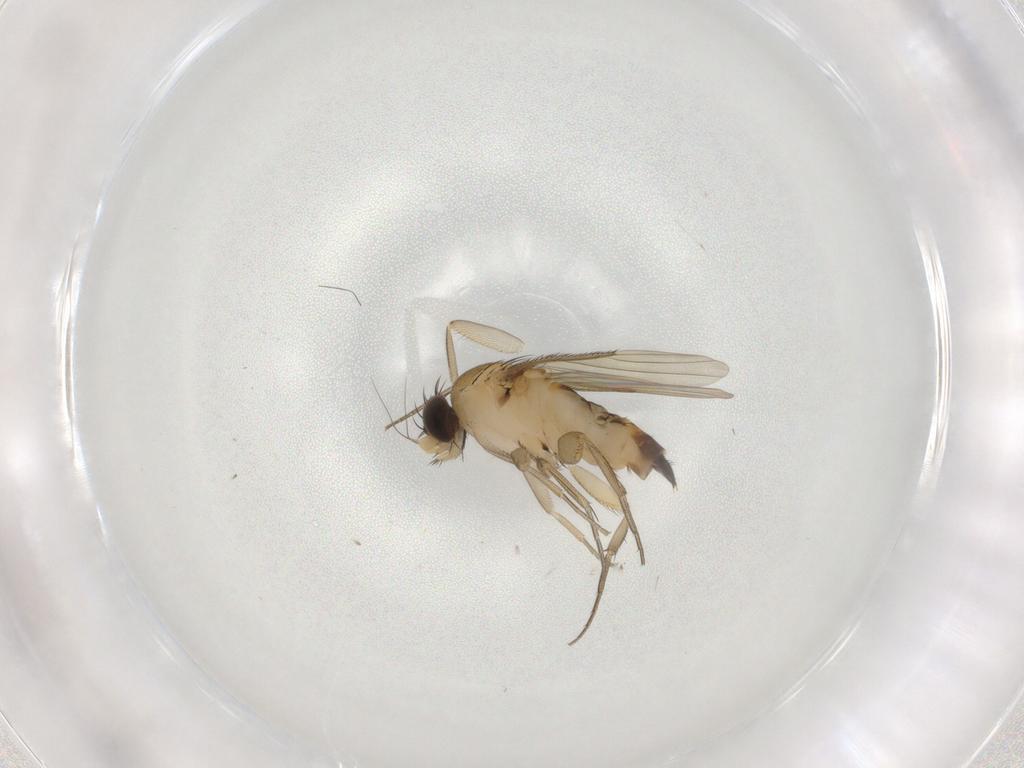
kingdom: Animalia
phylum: Arthropoda
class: Insecta
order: Diptera
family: Phoridae
